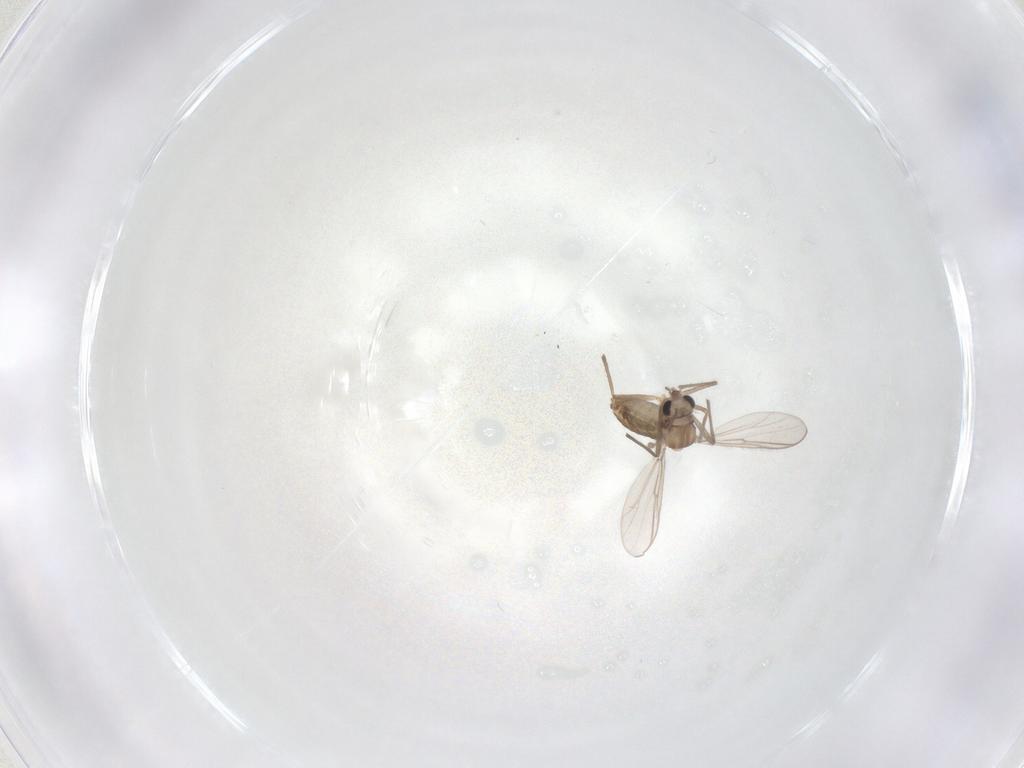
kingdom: Animalia
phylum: Arthropoda
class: Insecta
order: Diptera
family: Chironomidae
